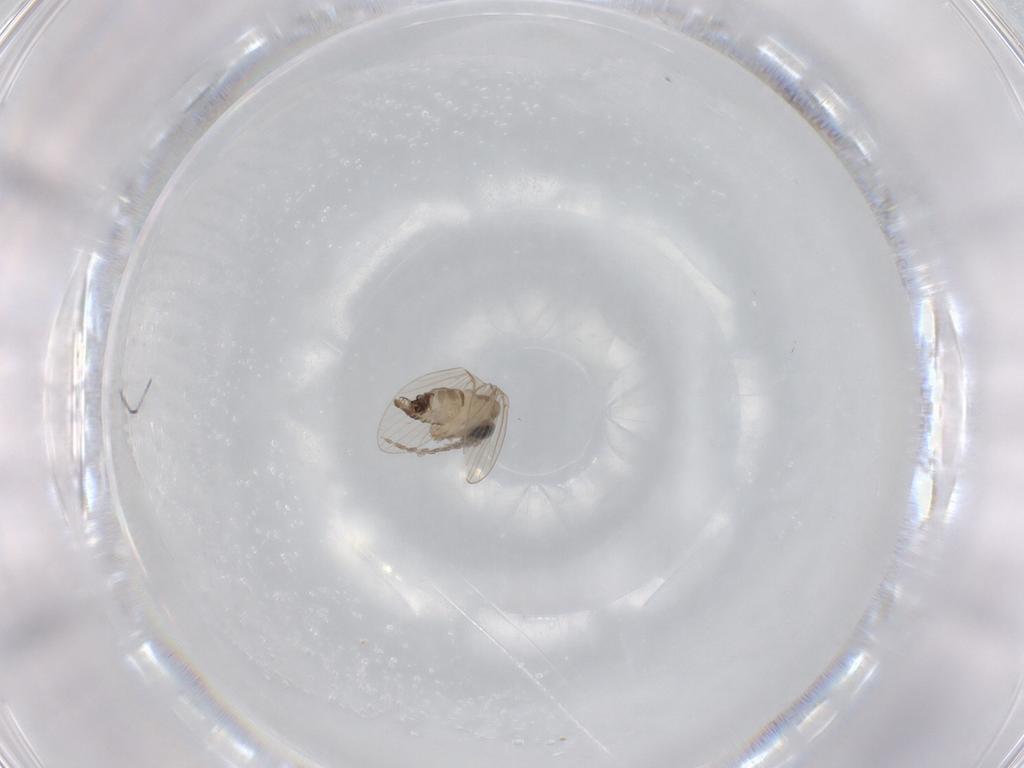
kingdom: Animalia
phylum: Arthropoda
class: Insecta
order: Diptera
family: Psychodidae
